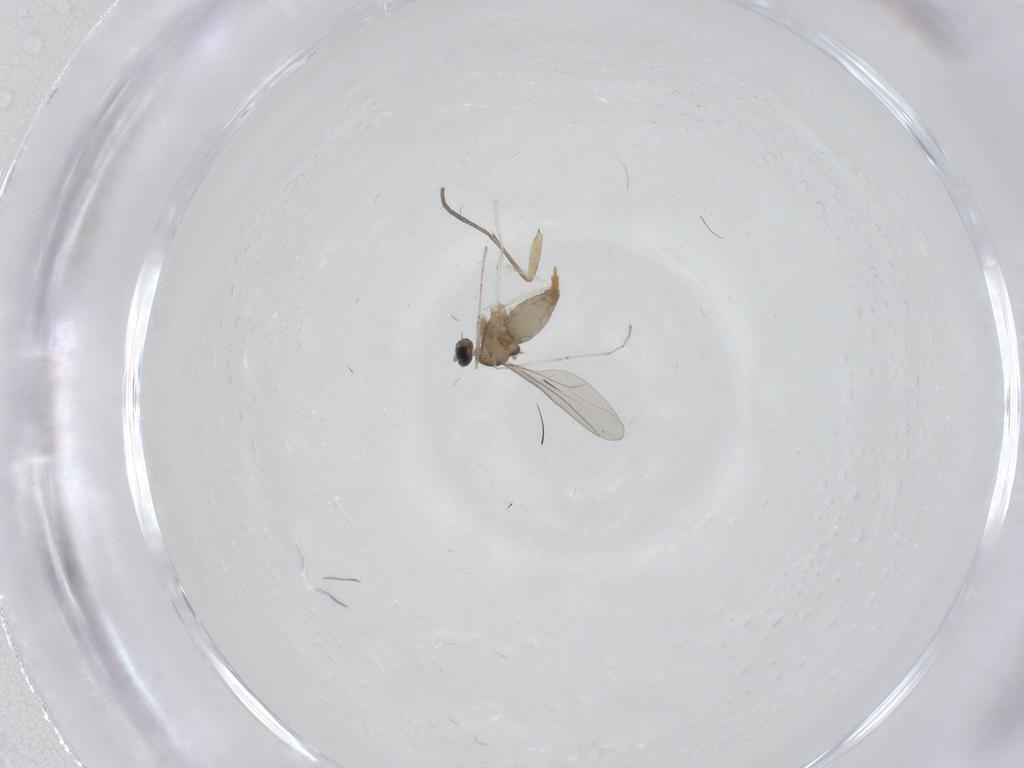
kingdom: Animalia
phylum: Arthropoda
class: Insecta
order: Diptera
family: Cecidomyiidae
